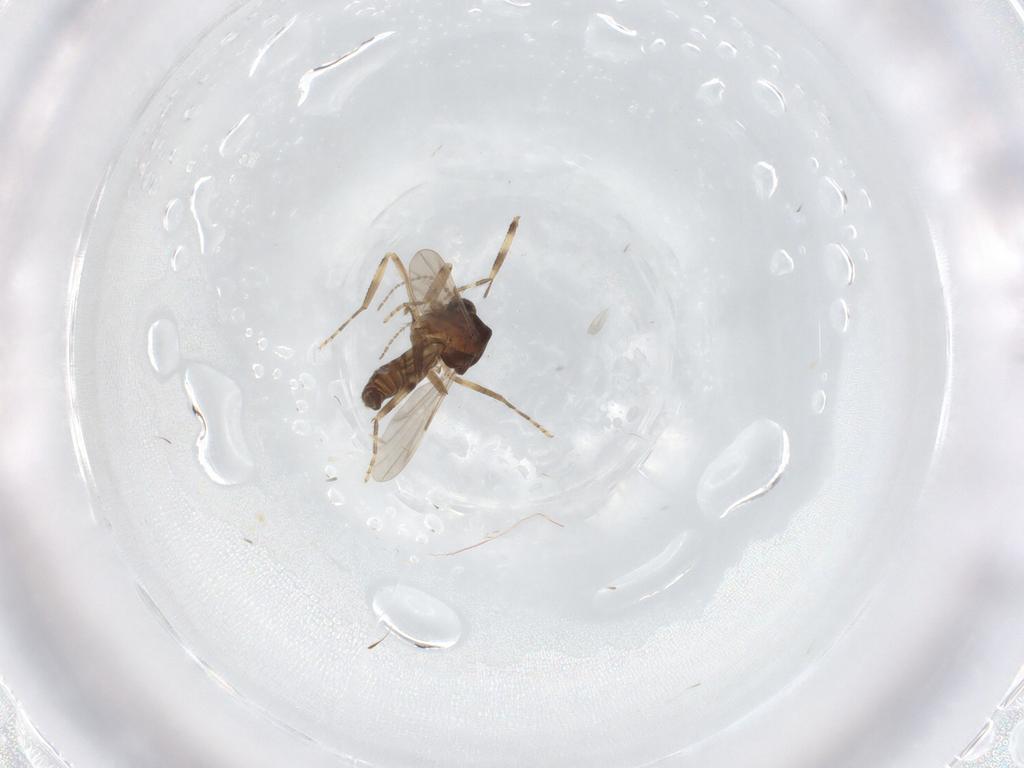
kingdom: Animalia
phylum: Arthropoda
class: Insecta
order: Diptera
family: Ceratopogonidae
